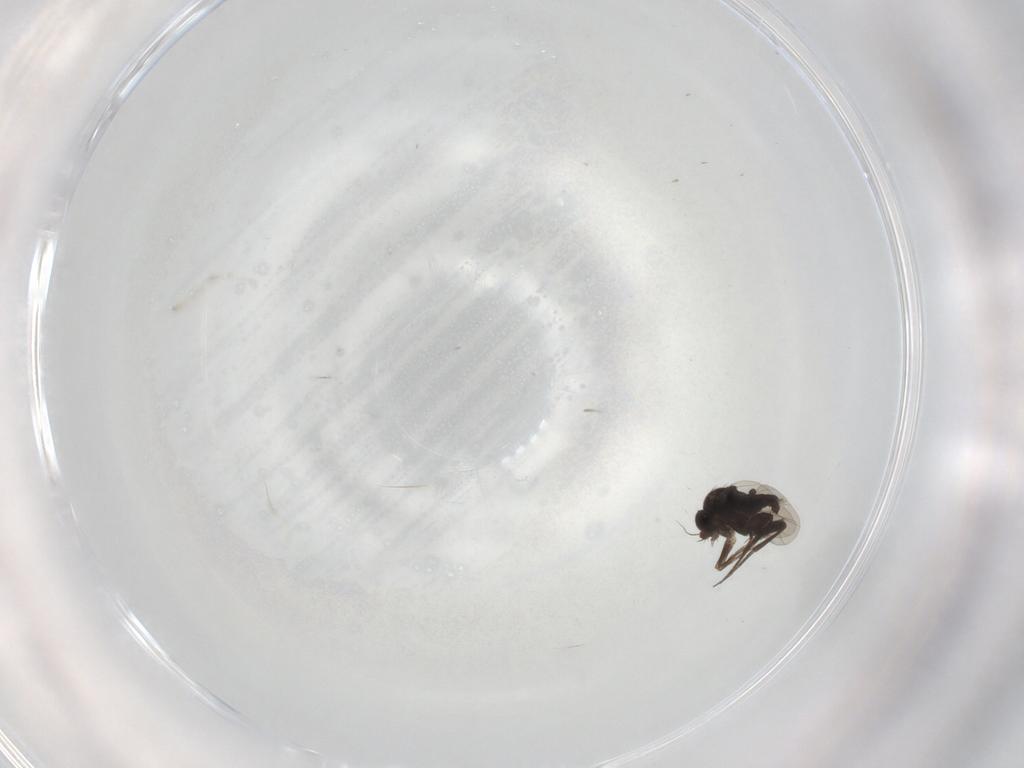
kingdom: Animalia
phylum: Arthropoda
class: Insecta
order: Diptera
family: Phoridae
